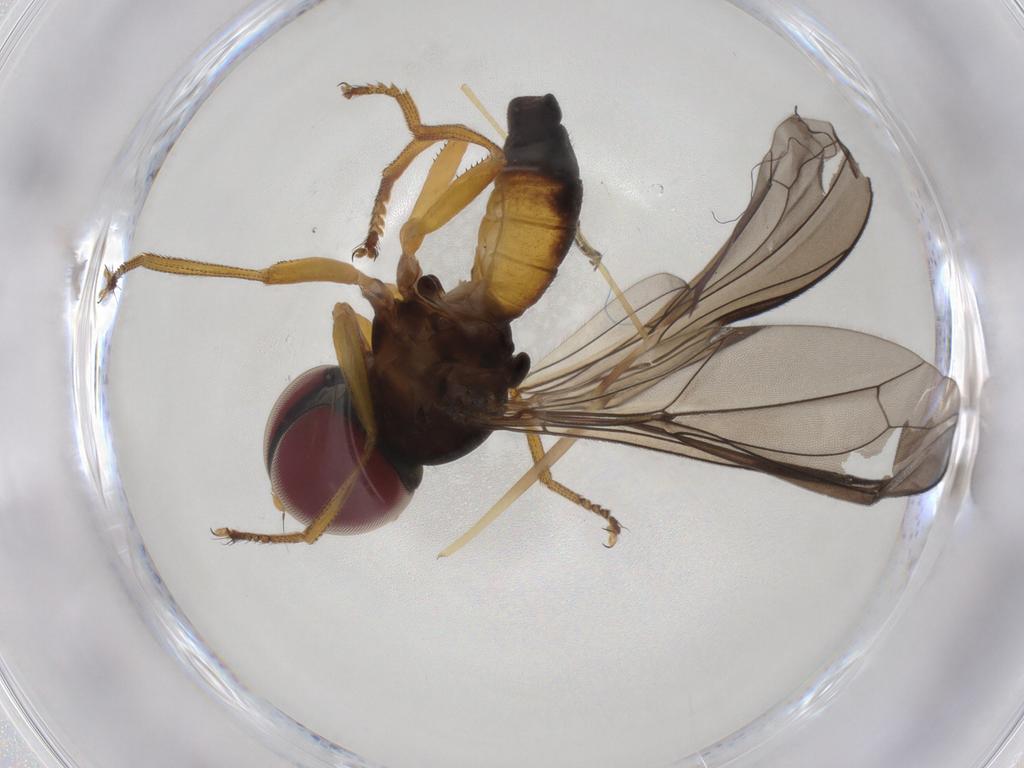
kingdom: Animalia
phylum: Arthropoda
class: Insecta
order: Diptera
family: Pipunculidae
